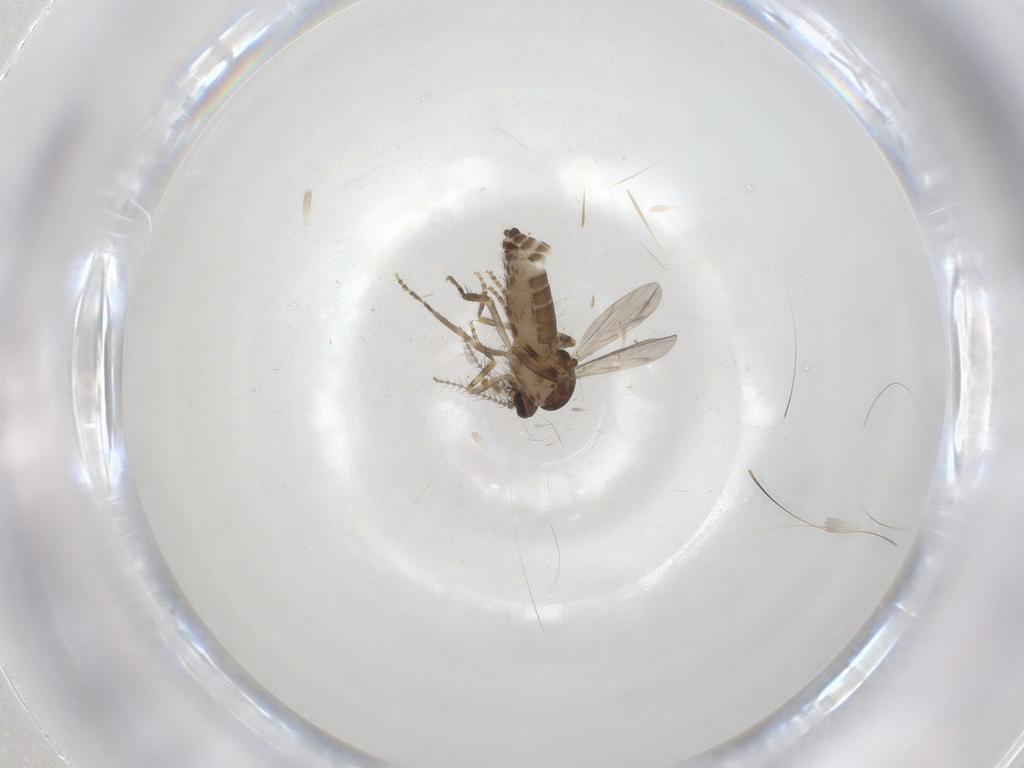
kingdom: Animalia
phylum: Arthropoda
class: Insecta
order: Diptera
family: Ceratopogonidae
